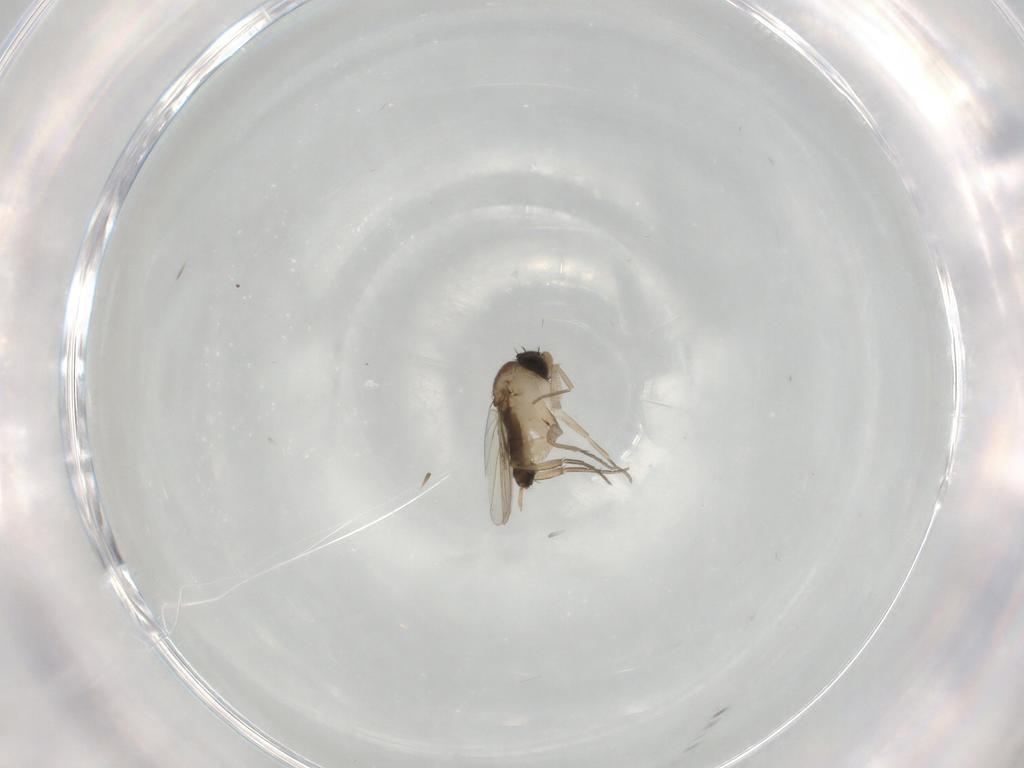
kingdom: Animalia
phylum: Arthropoda
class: Insecta
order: Diptera
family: Phoridae
